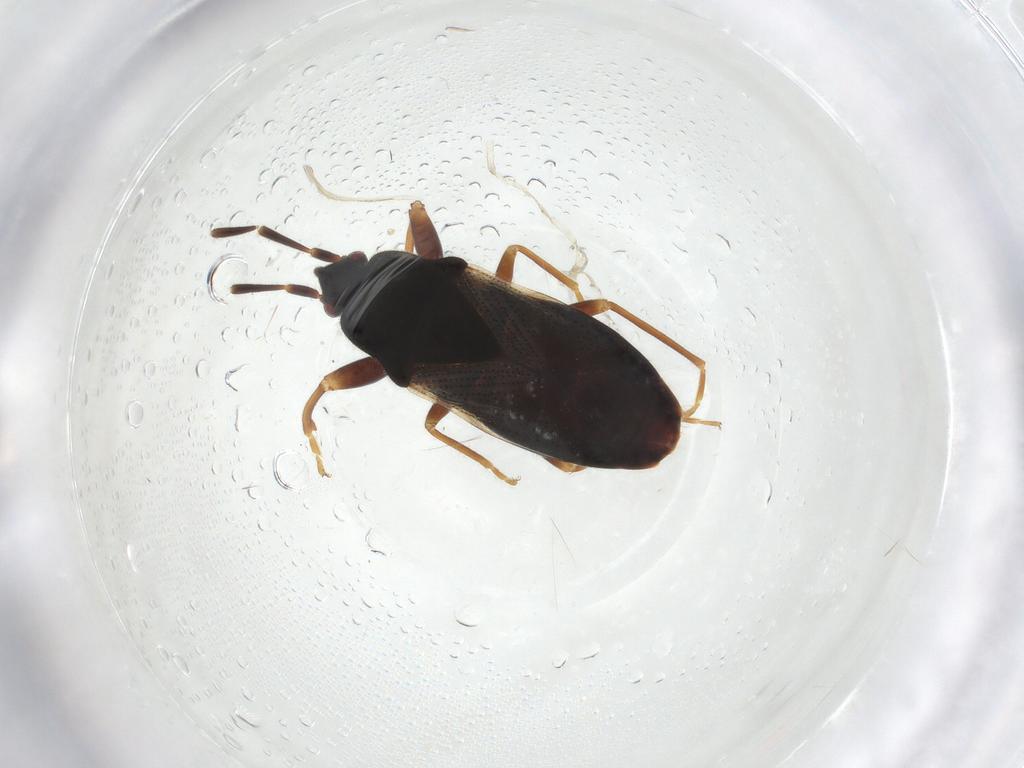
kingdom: Animalia
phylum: Arthropoda
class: Insecta
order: Hemiptera
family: Rhyparochromidae
